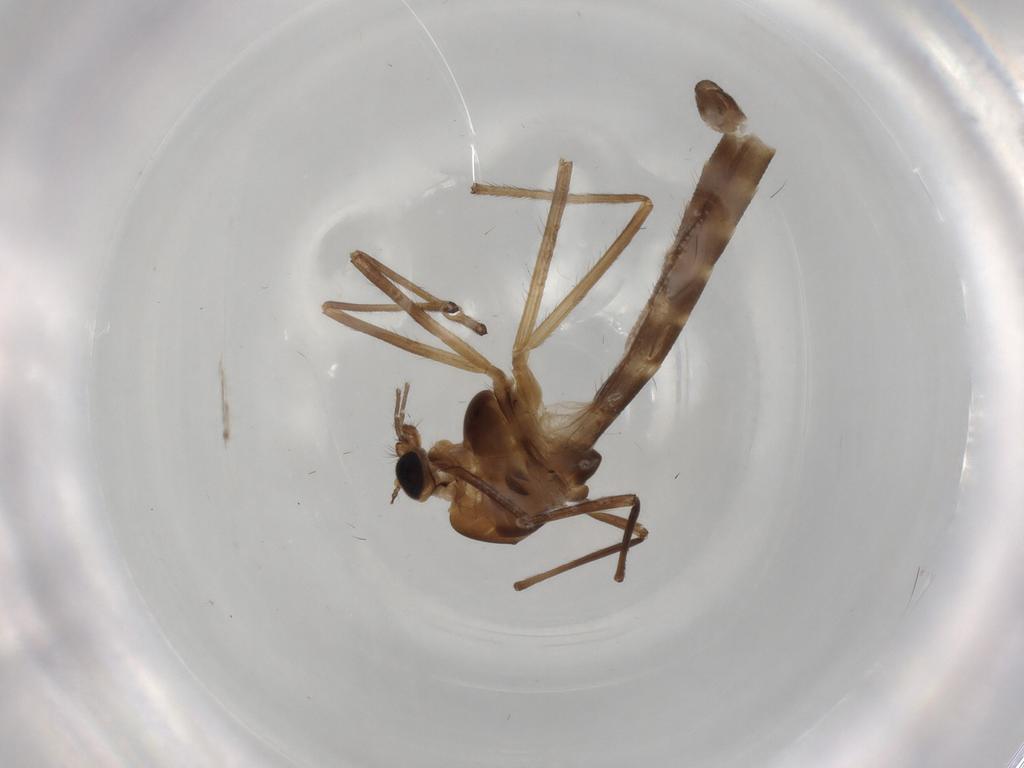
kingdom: Animalia
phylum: Arthropoda
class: Insecta
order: Diptera
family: Chironomidae
